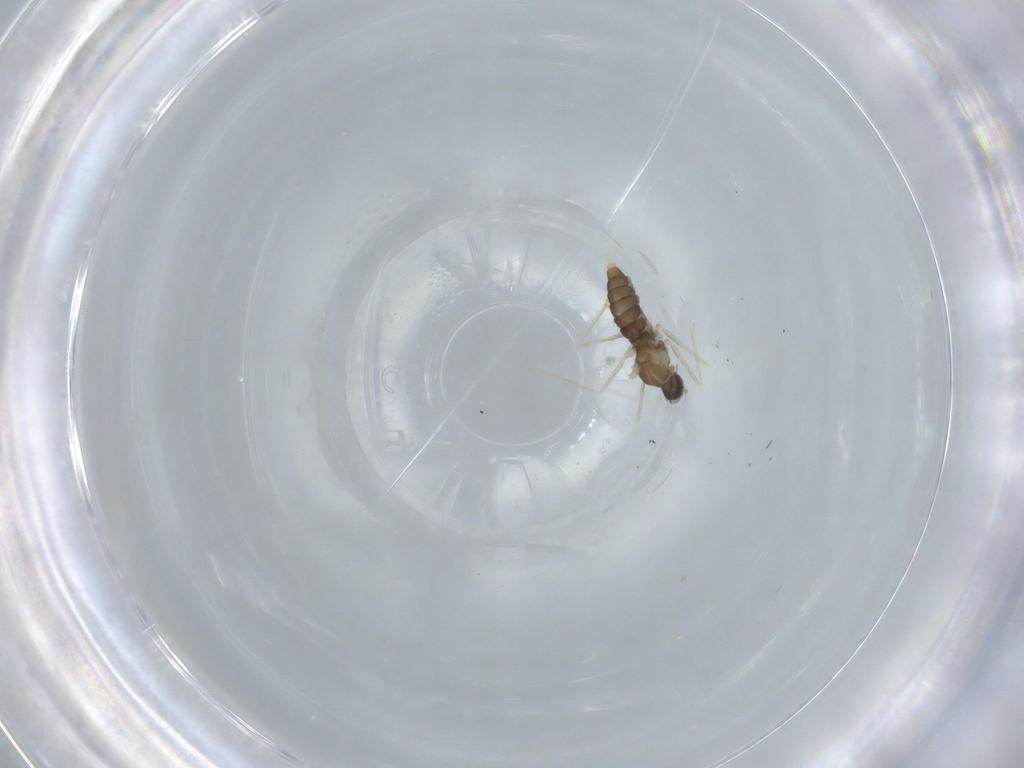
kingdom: Animalia
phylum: Arthropoda
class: Insecta
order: Diptera
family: Cecidomyiidae
